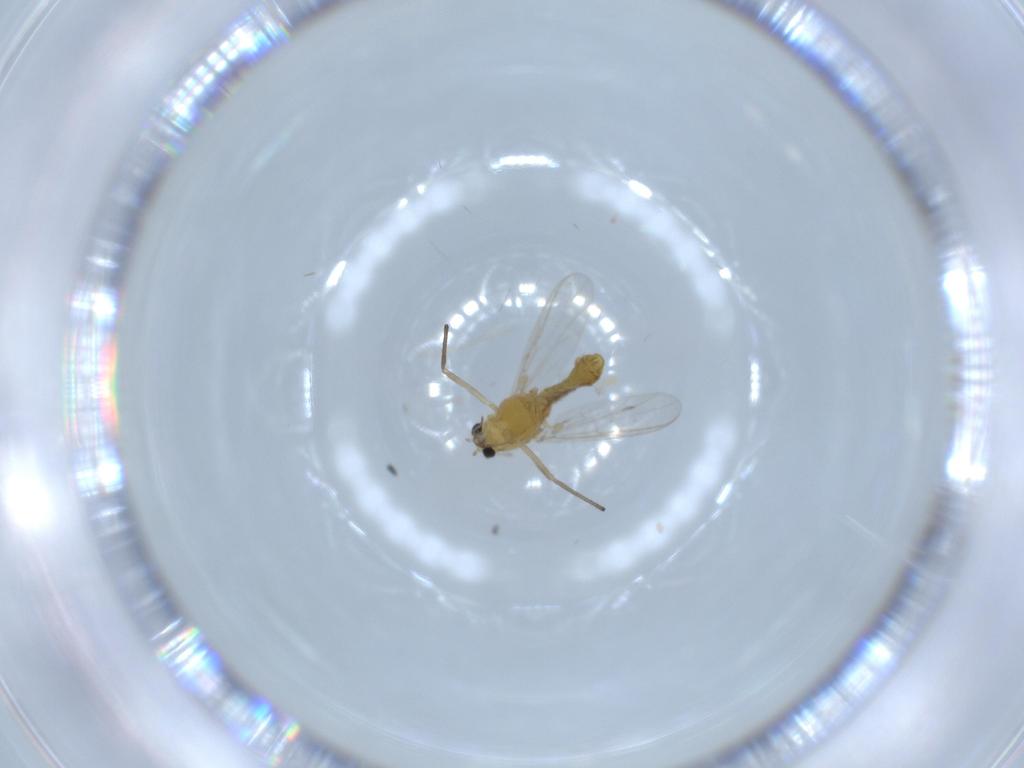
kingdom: Animalia
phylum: Arthropoda
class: Insecta
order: Diptera
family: Chironomidae
